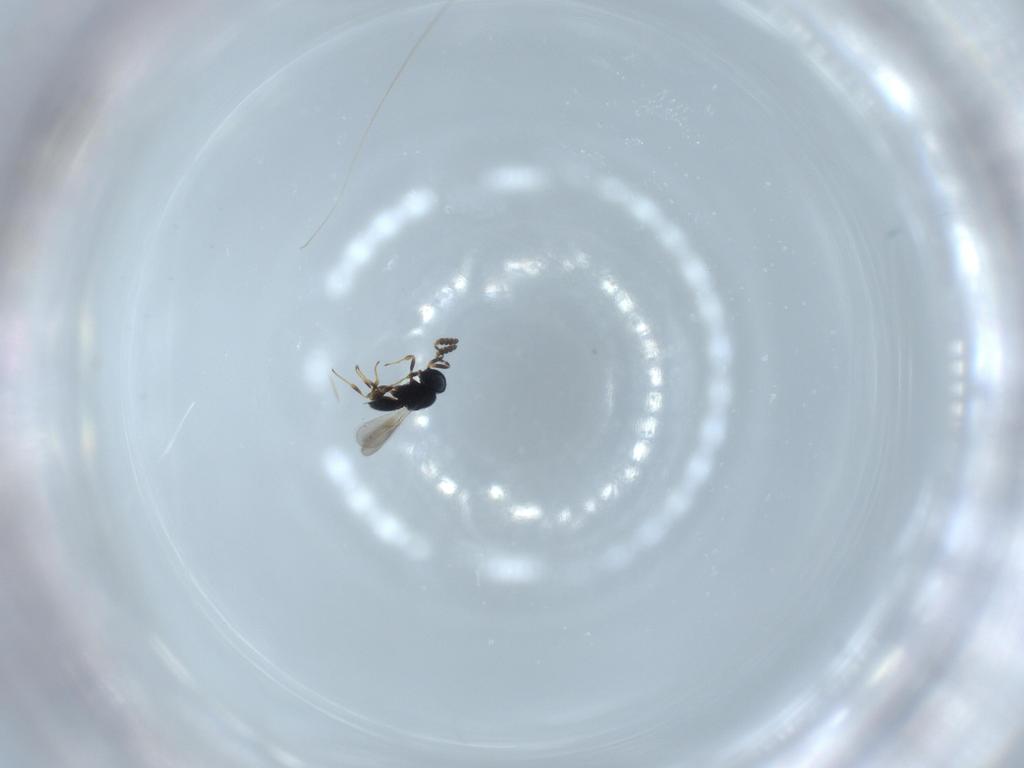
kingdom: Animalia
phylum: Arthropoda
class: Insecta
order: Hymenoptera
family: Scelionidae
